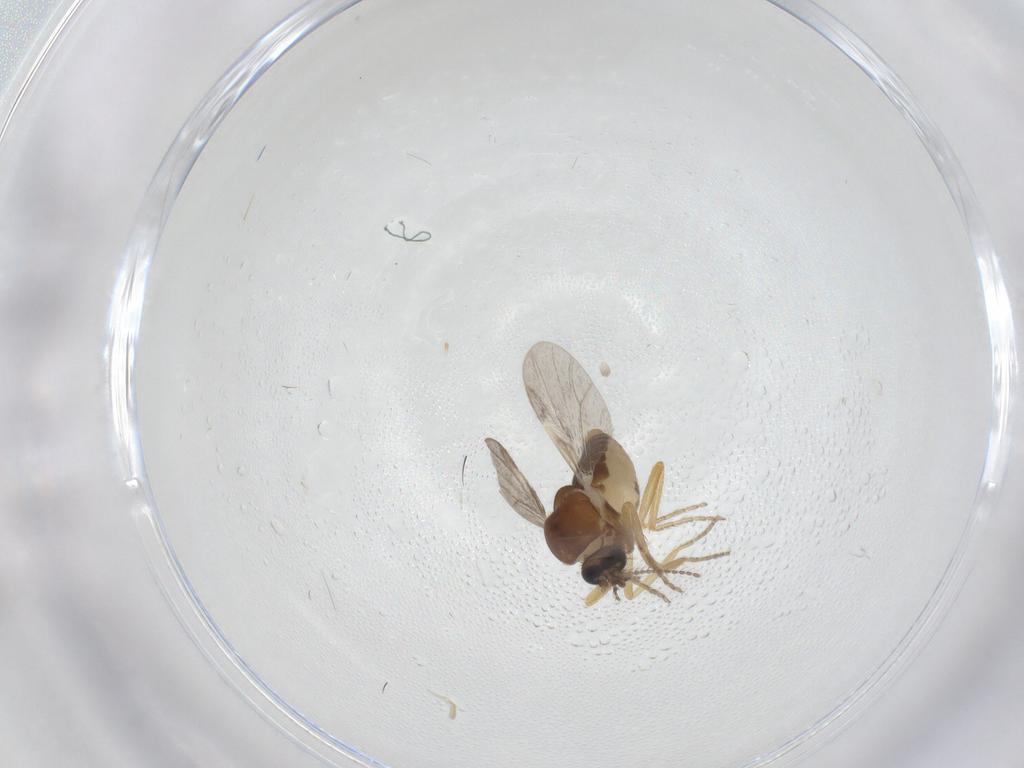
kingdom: Animalia
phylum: Arthropoda
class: Insecta
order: Diptera
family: Ceratopogonidae
